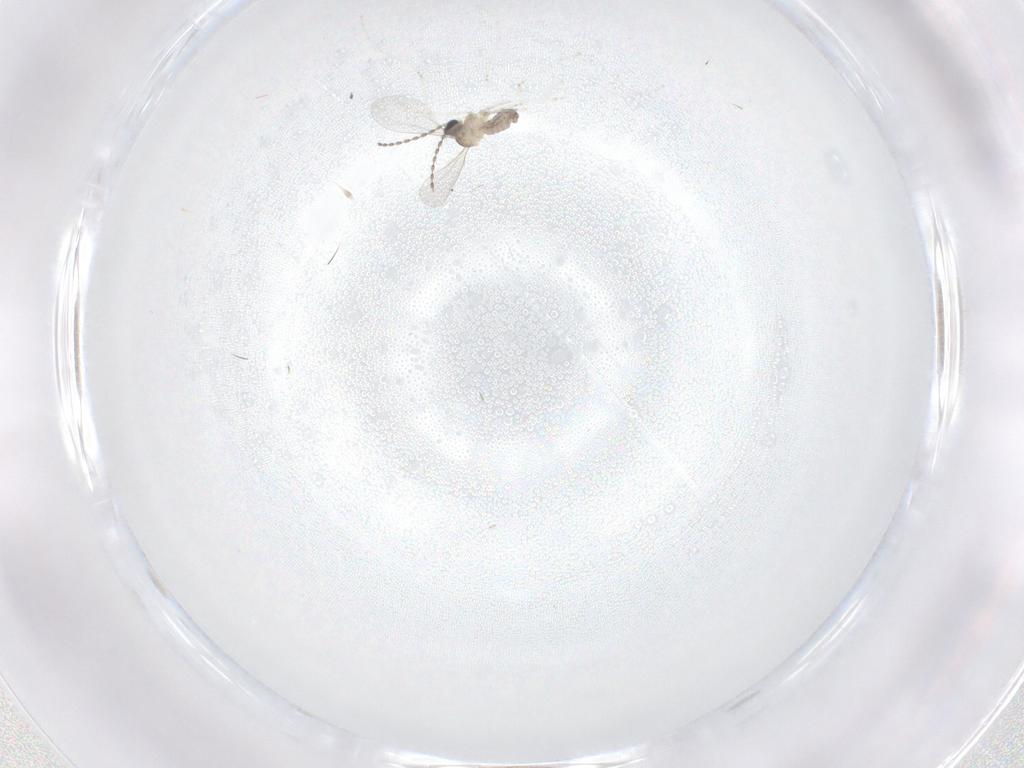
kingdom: Animalia
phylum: Arthropoda
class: Insecta
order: Diptera
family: Cecidomyiidae
